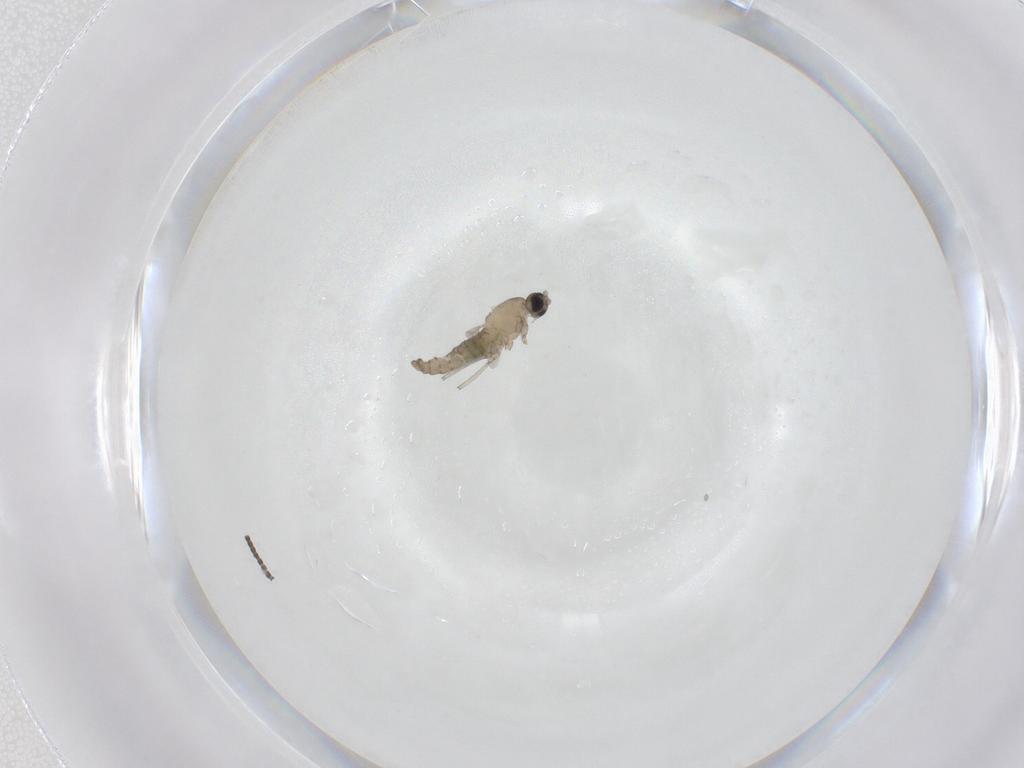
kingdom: Animalia
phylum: Arthropoda
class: Insecta
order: Diptera
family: Cecidomyiidae
